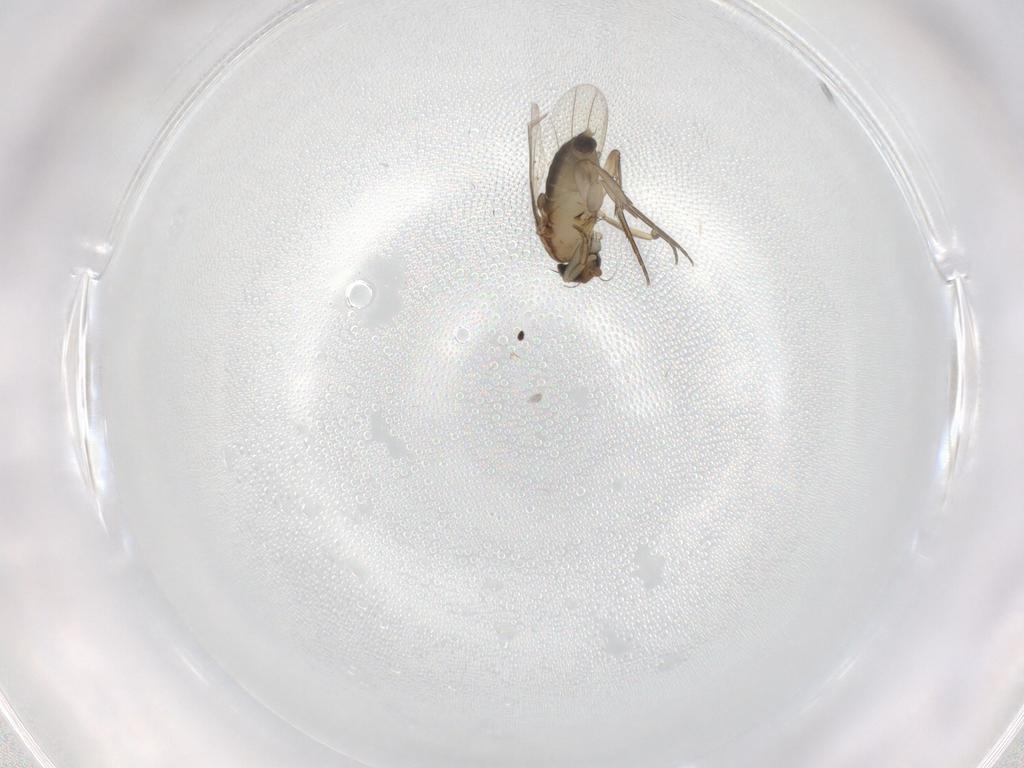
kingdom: Animalia
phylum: Arthropoda
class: Insecta
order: Diptera
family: Phoridae
